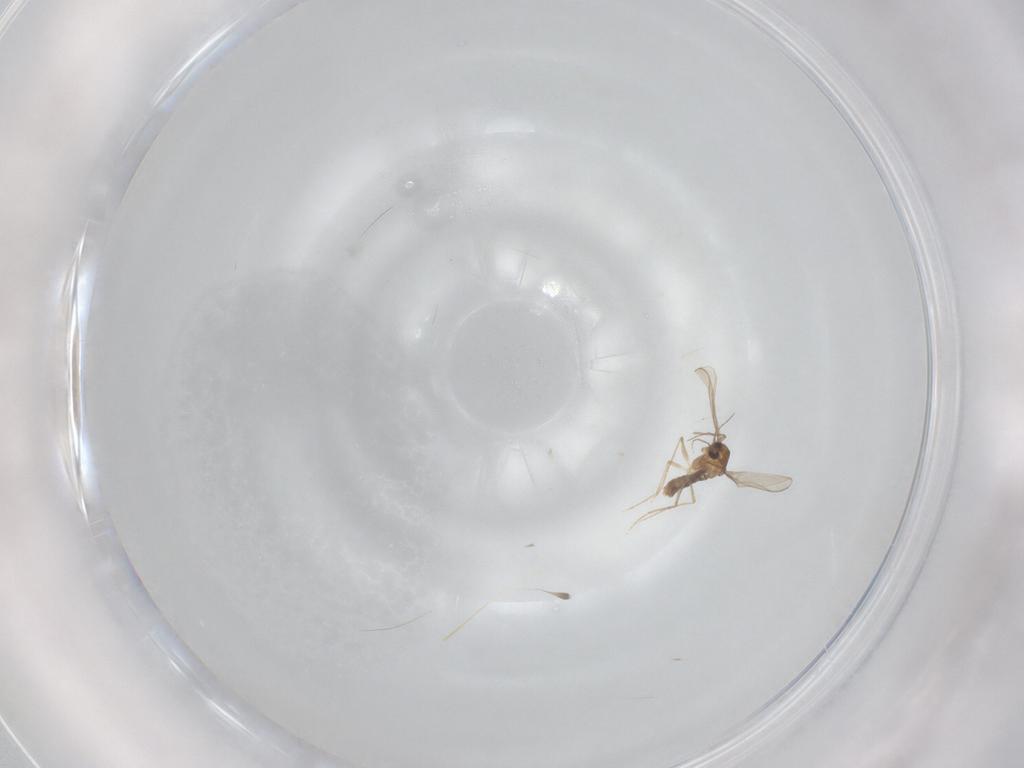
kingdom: Animalia
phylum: Arthropoda
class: Insecta
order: Diptera
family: Chironomidae
